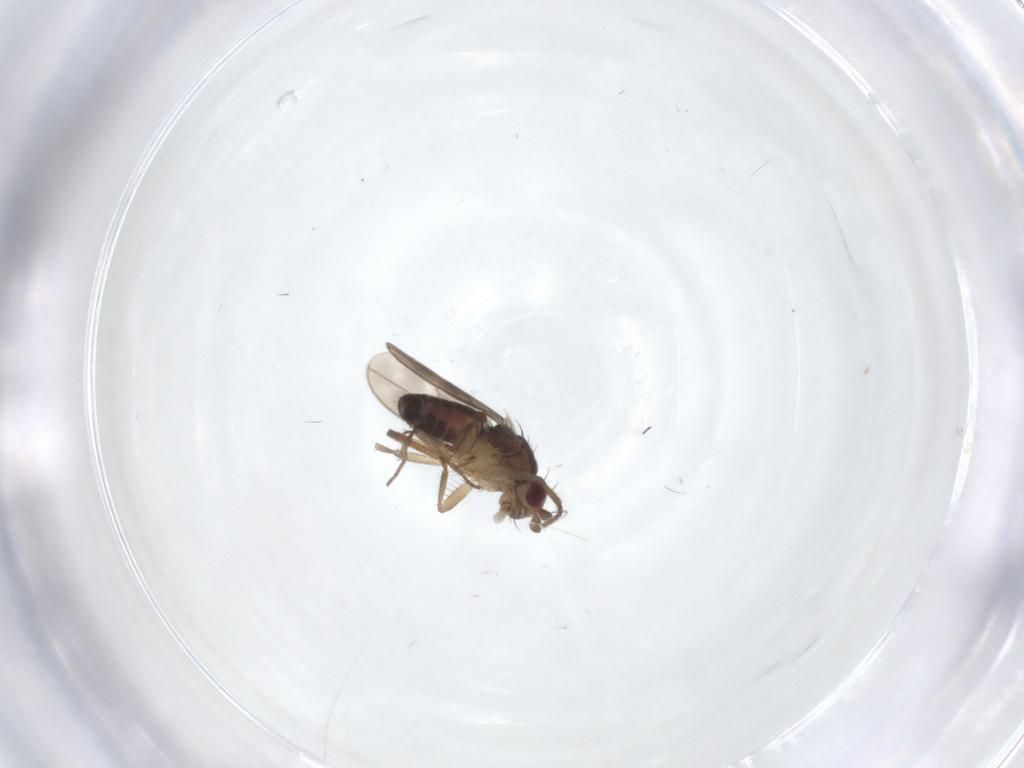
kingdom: Animalia
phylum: Arthropoda
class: Insecta
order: Diptera
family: Sphaeroceridae
